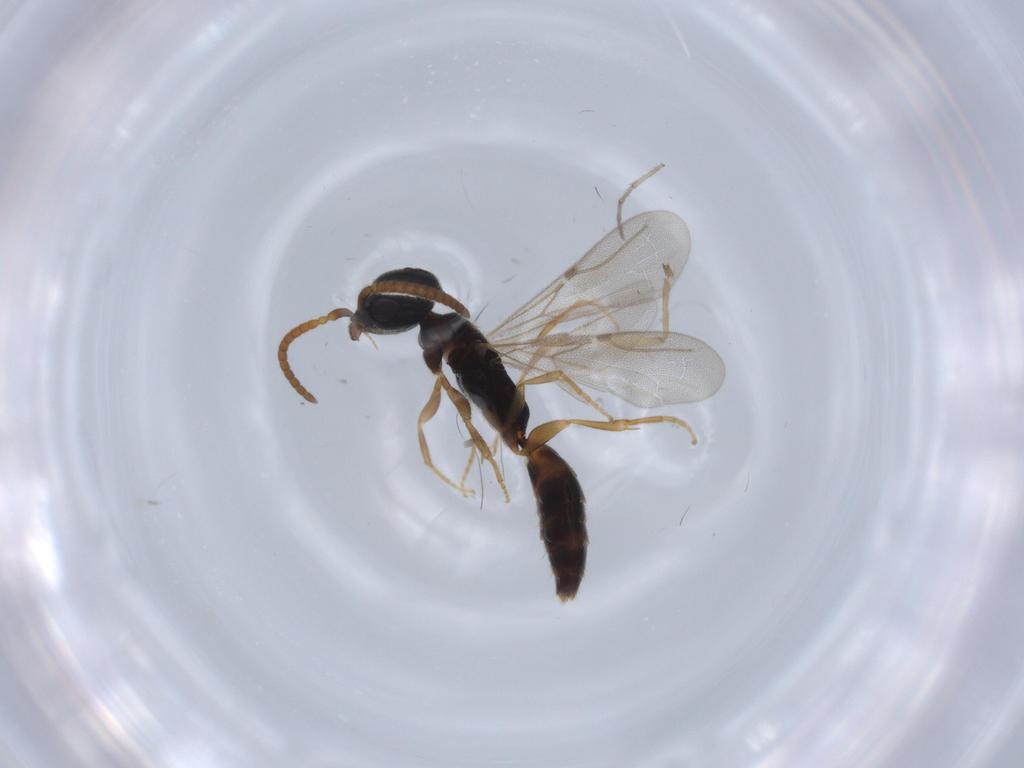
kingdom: Animalia
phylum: Arthropoda
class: Insecta
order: Hymenoptera
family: Bethylidae
